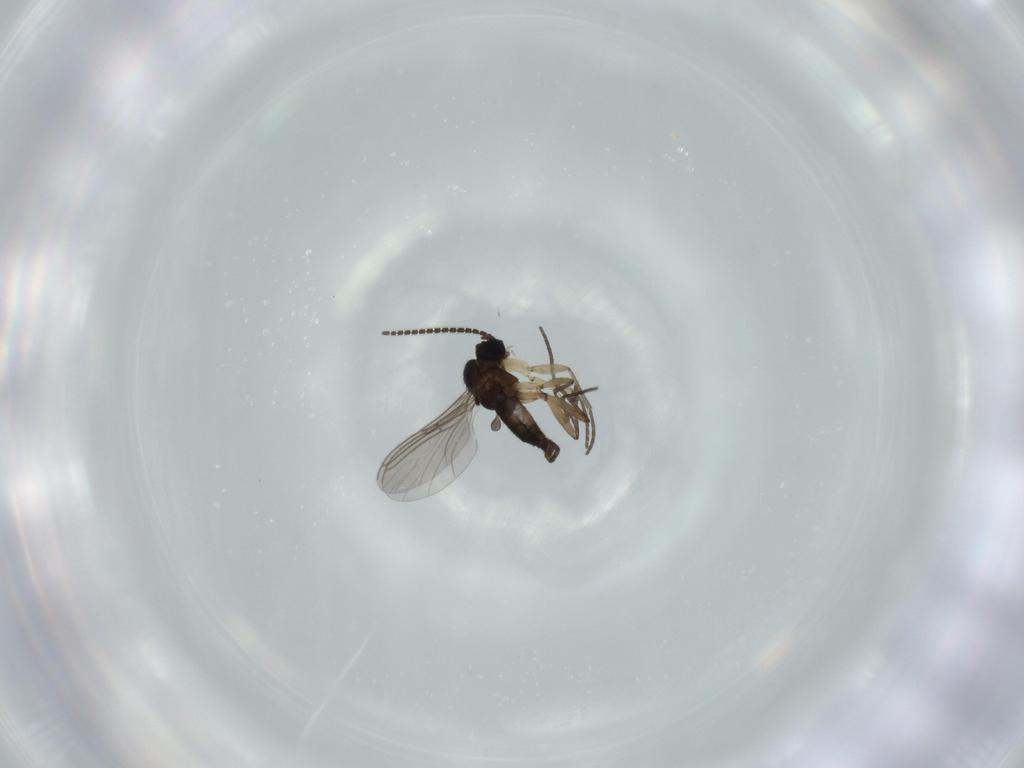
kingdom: Animalia
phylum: Arthropoda
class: Insecta
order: Diptera
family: Sciaridae
